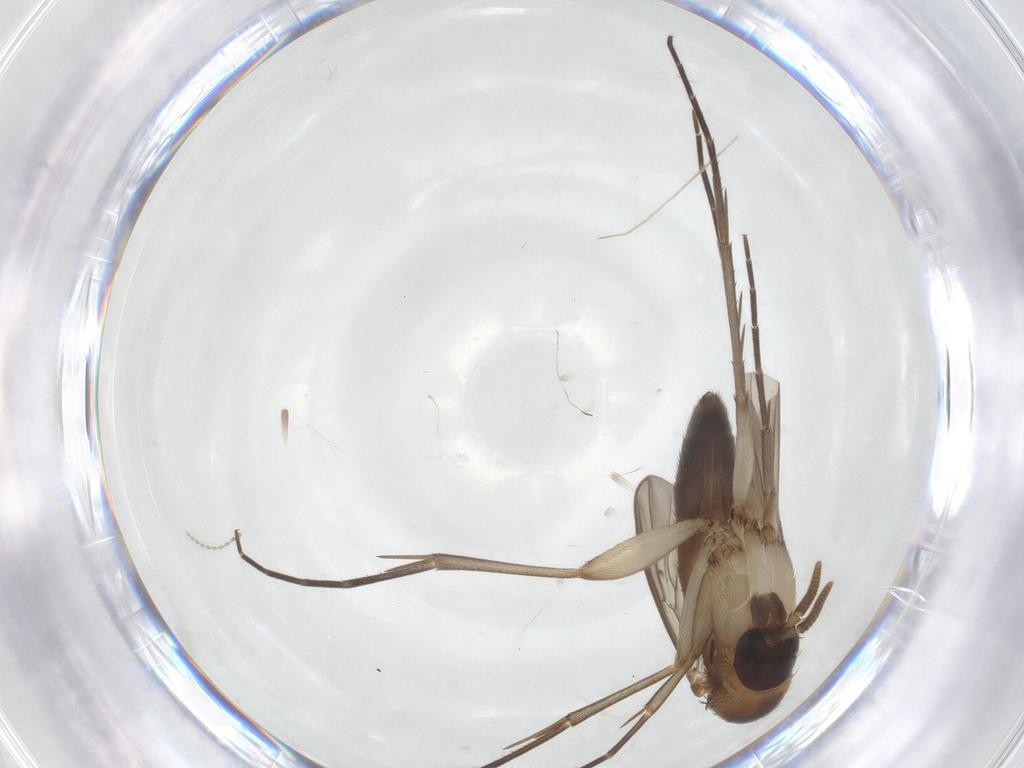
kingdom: Animalia
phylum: Arthropoda
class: Insecta
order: Diptera
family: Mycetophilidae
